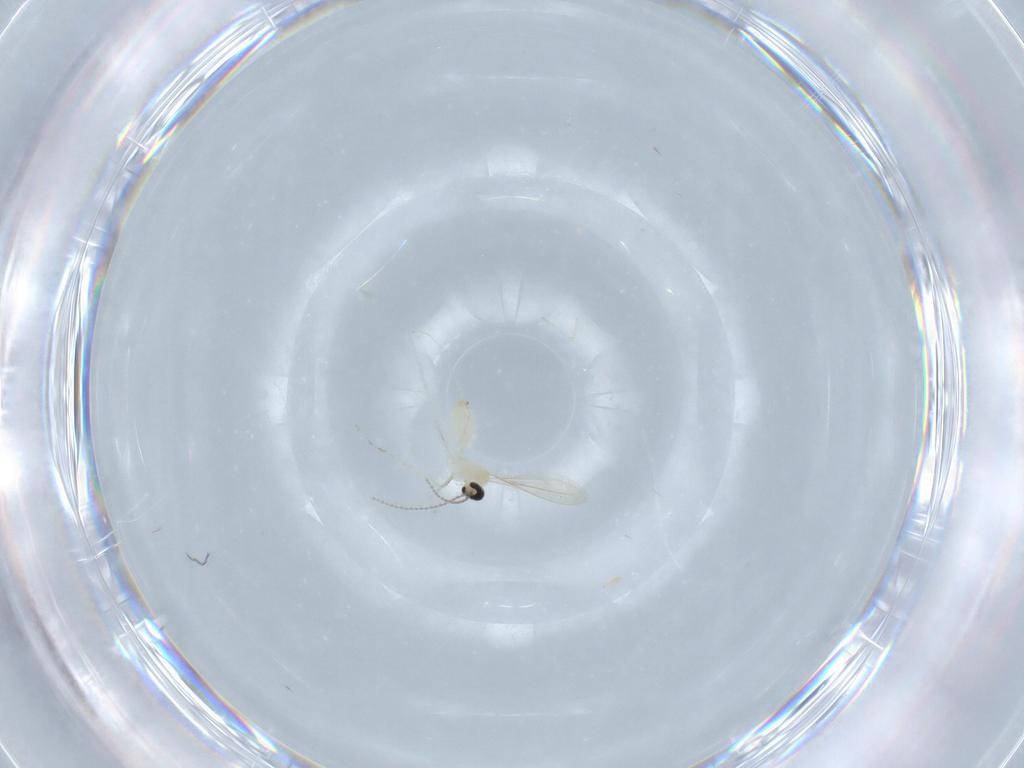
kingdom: Animalia
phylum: Arthropoda
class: Insecta
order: Diptera
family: Cecidomyiidae
